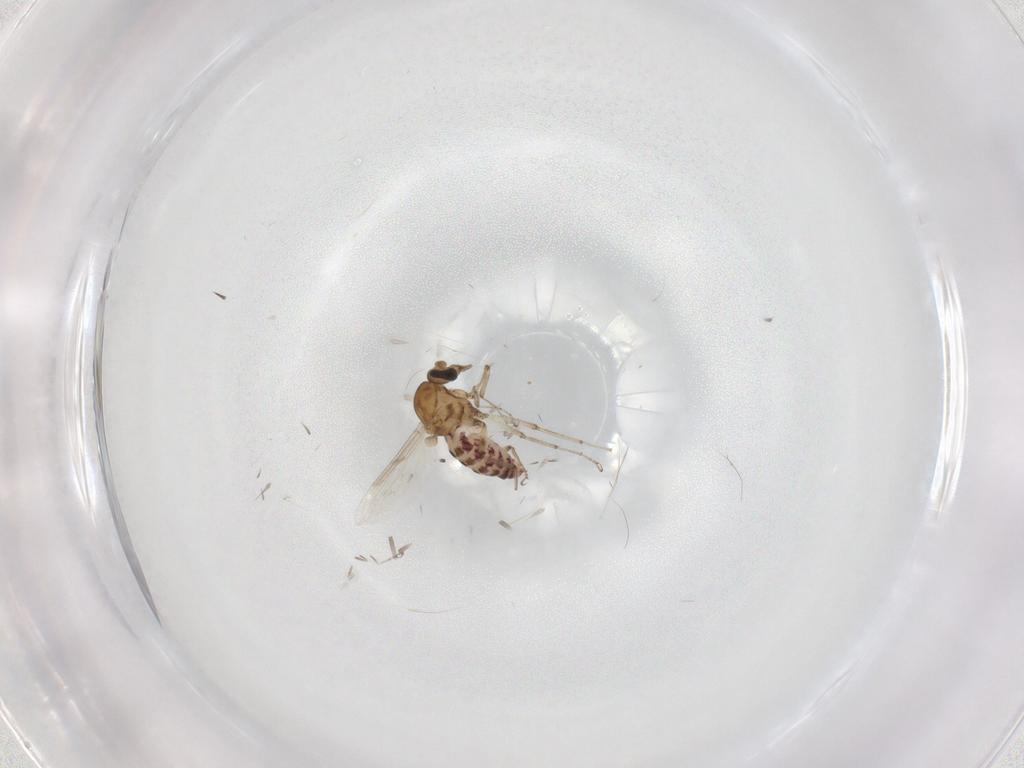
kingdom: Animalia
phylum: Arthropoda
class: Insecta
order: Diptera
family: Ceratopogonidae
